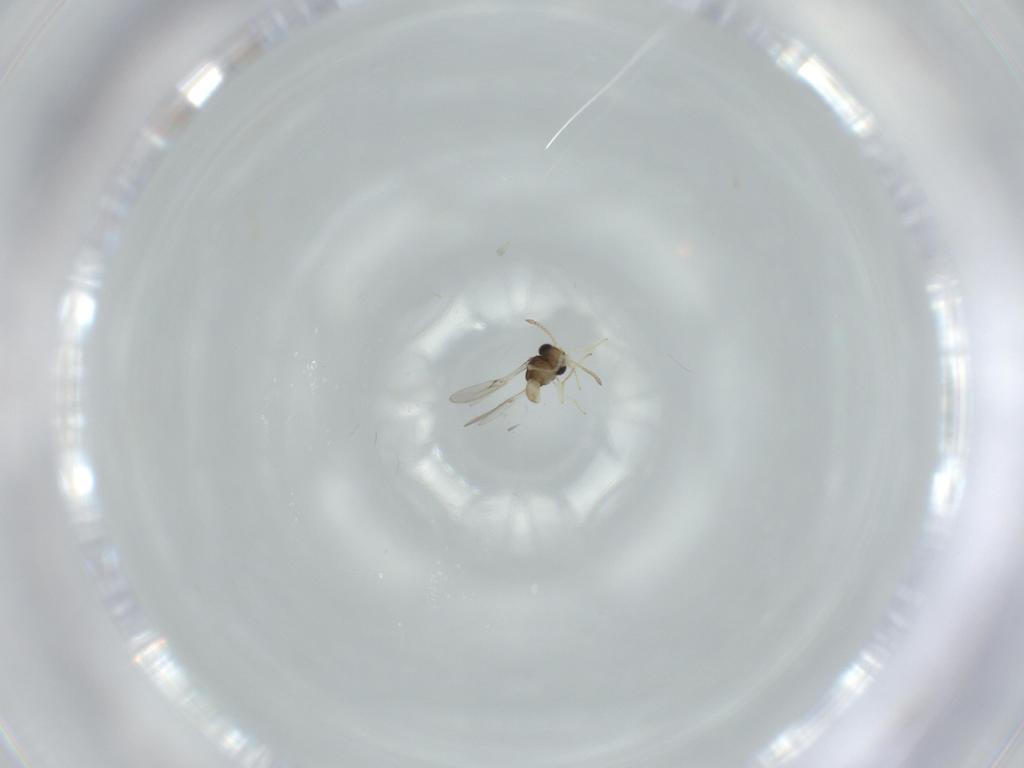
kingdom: Animalia
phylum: Arthropoda
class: Insecta
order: Hymenoptera
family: Scelionidae
